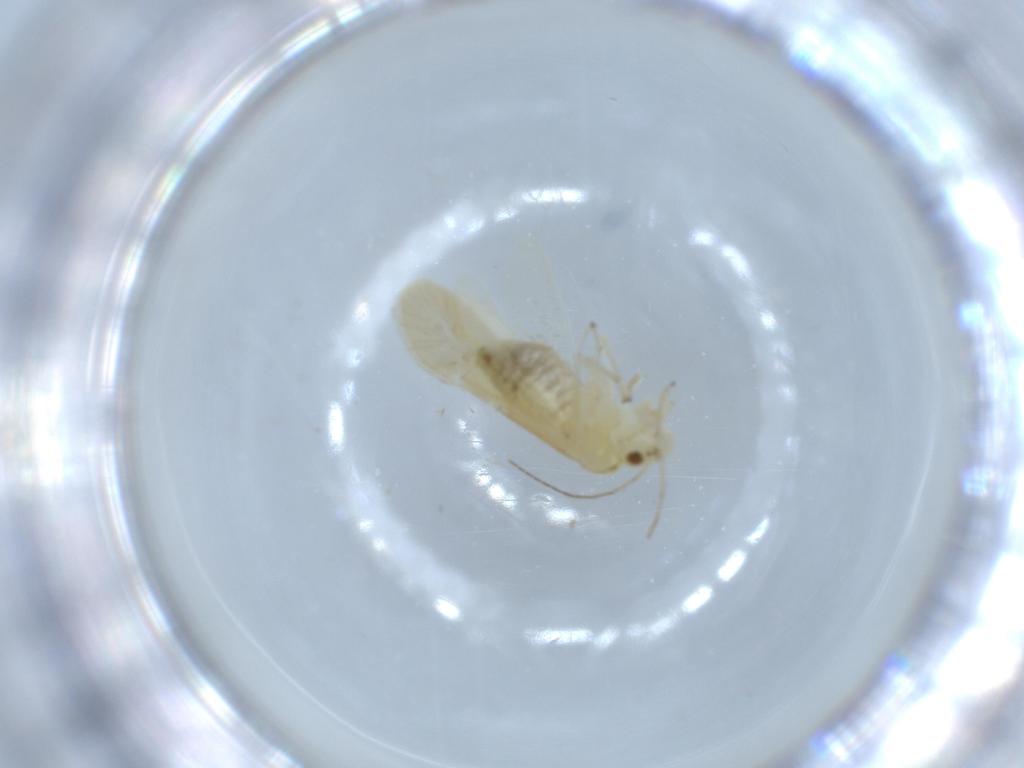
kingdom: Animalia
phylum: Arthropoda
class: Insecta
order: Psocodea
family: Caeciliusidae
